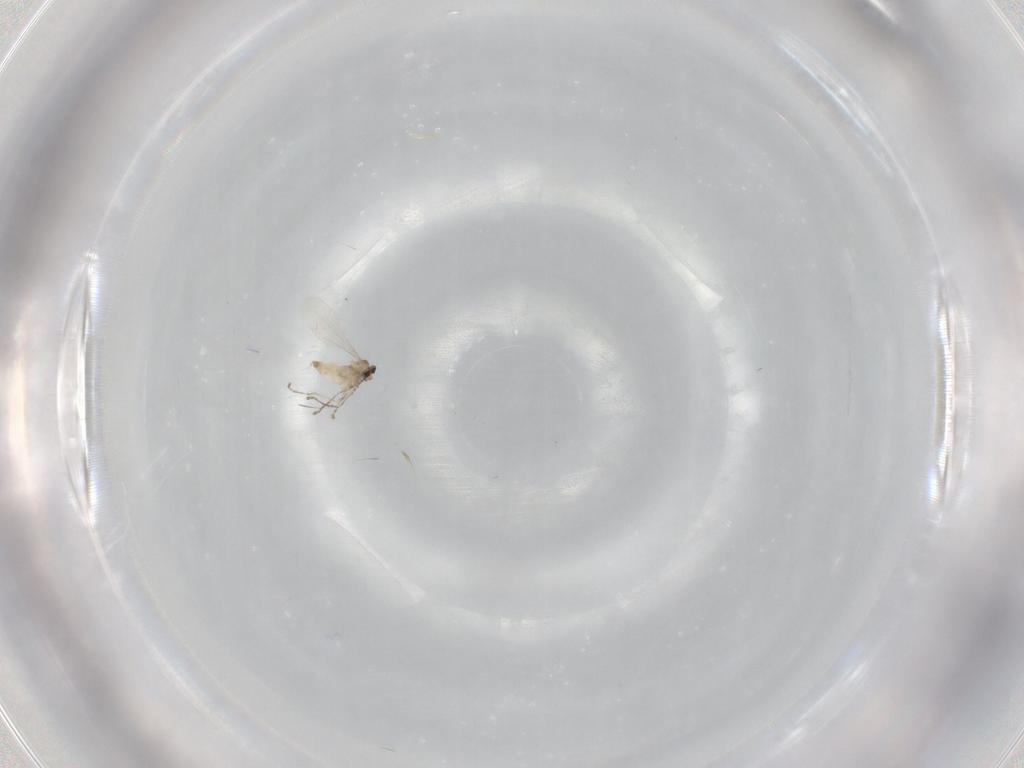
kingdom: Animalia
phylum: Arthropoda
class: Insecta
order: Diptera
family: Cecidomyiidae
